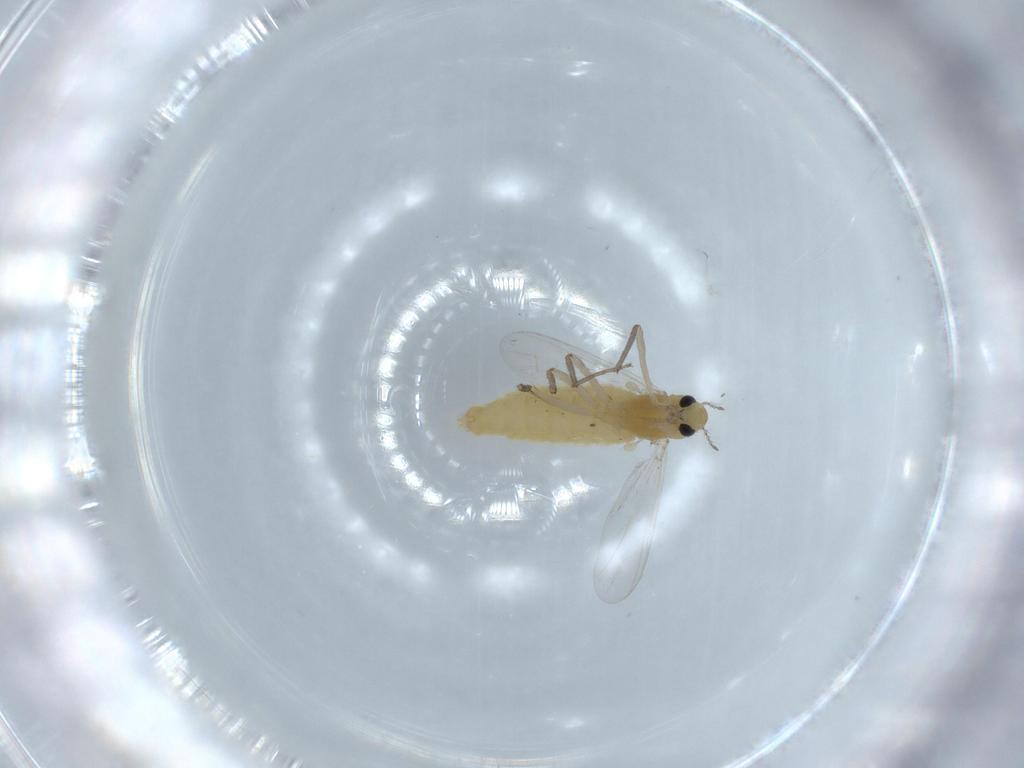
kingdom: Animalia
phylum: Arthropoda
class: Insecta
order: Diptera
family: Chironomidae
